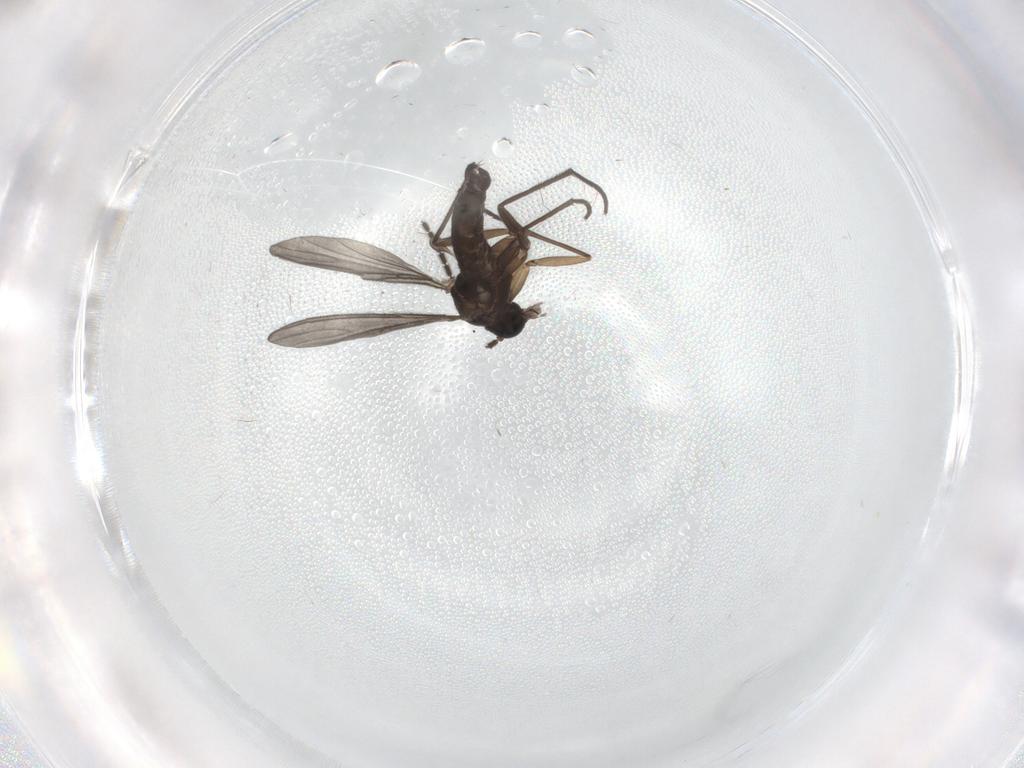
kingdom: Animalia
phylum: Arthropoda
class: Insecta
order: Diptera
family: Sciaridae
